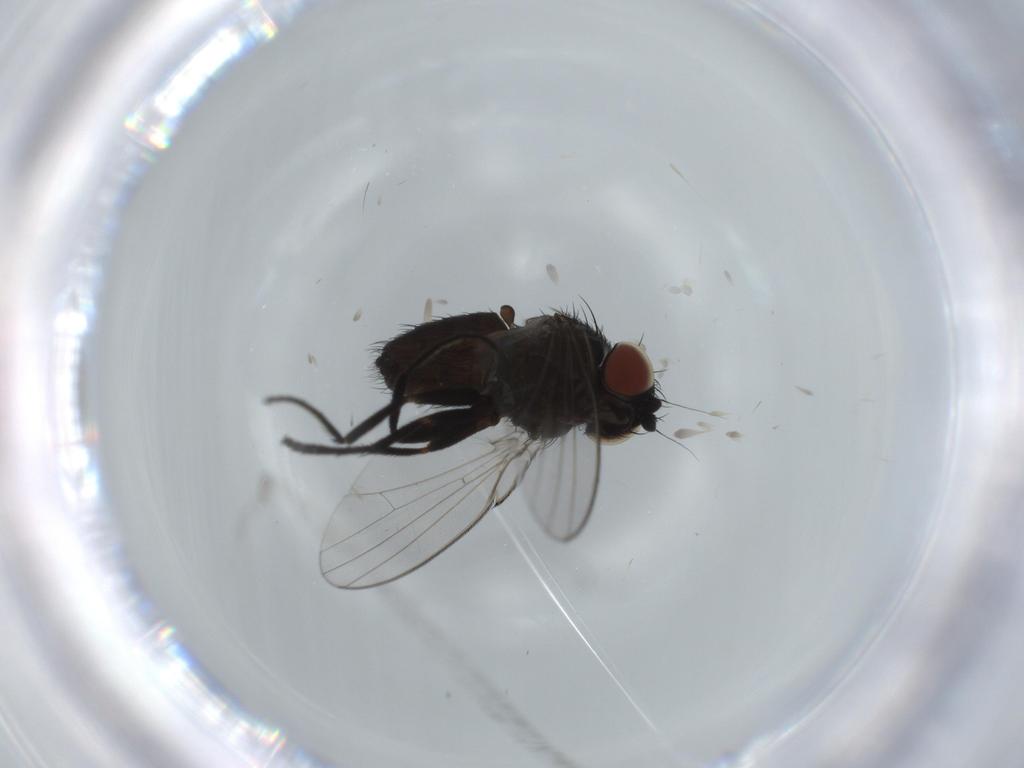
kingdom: Animalia
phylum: Arthropoda
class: Insecta
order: Diptera
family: Milichiidae
